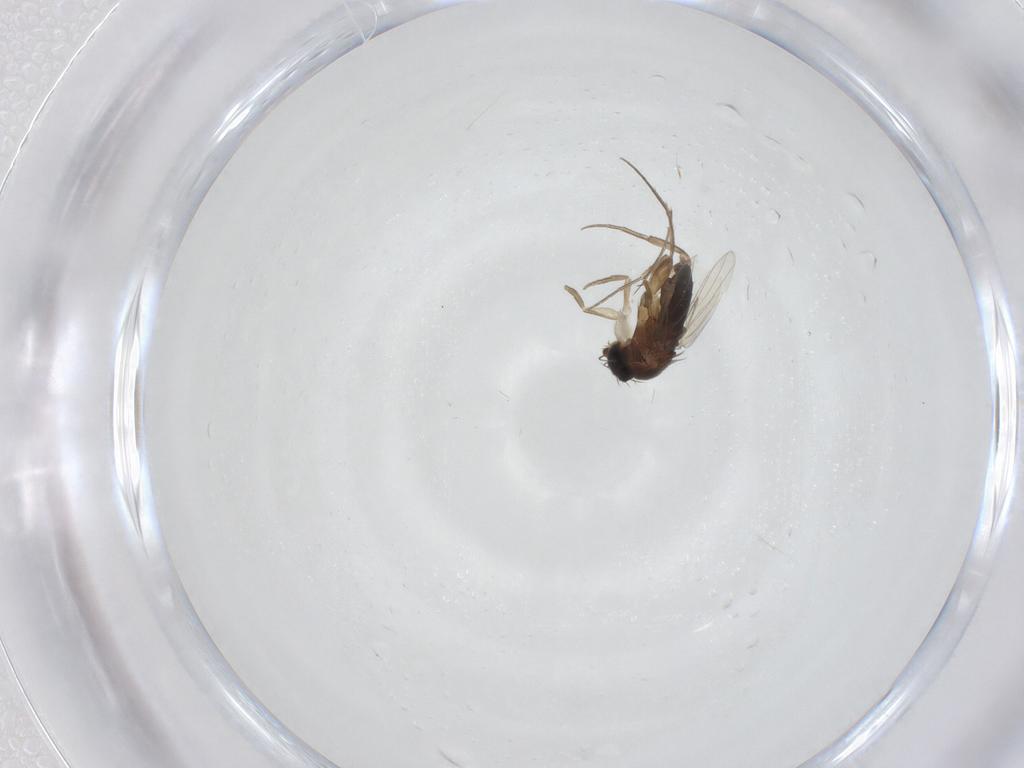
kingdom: Animalia
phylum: Arthropoda
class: Insecta
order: Diptera
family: Phoridae
